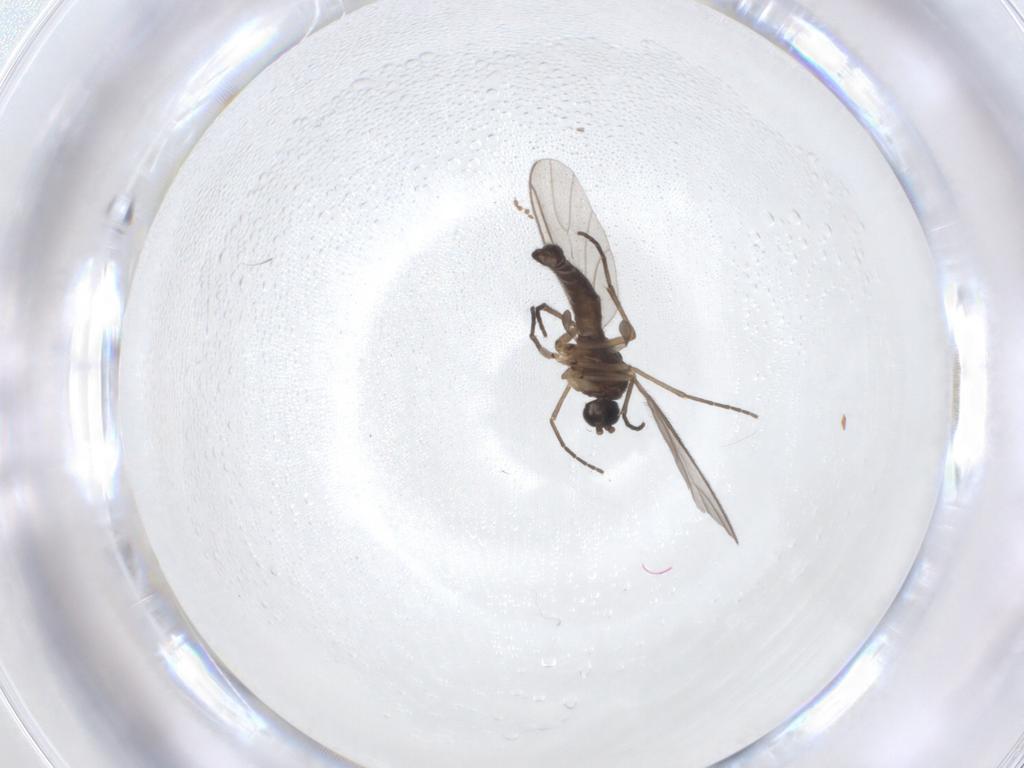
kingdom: Animalia
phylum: Arthropoda
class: Insecta
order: Diptera
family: Sciaridae
